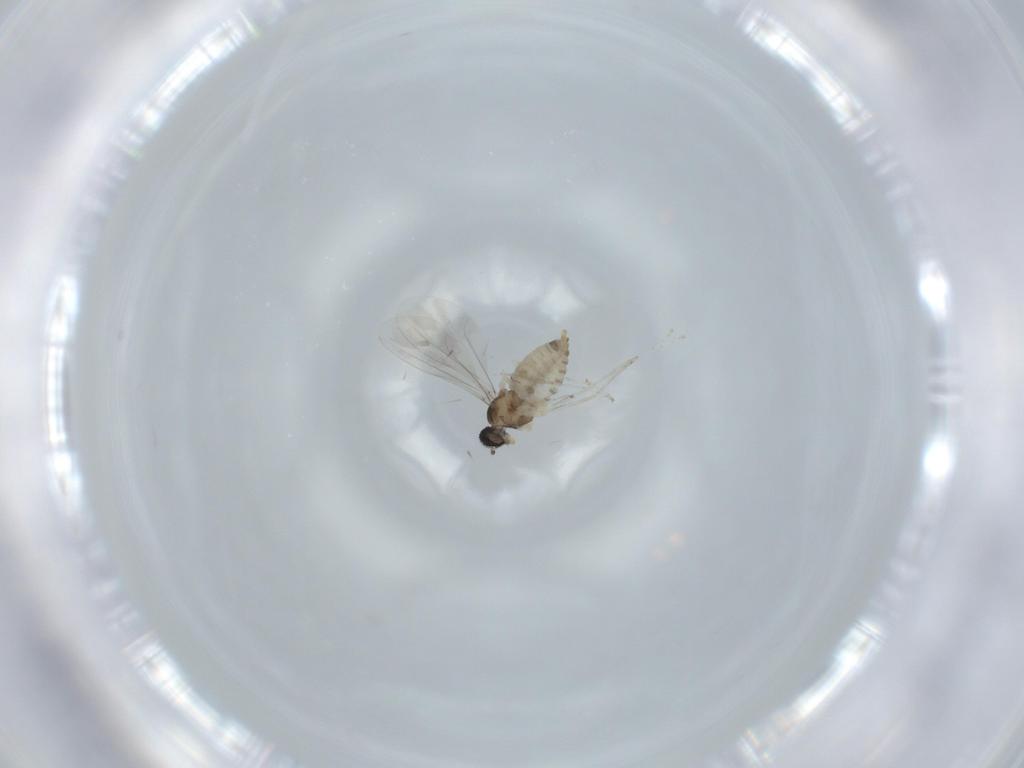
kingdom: Animalia
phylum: Arthropoda
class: Insecta
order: Diptera
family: Cecidomyiidae
